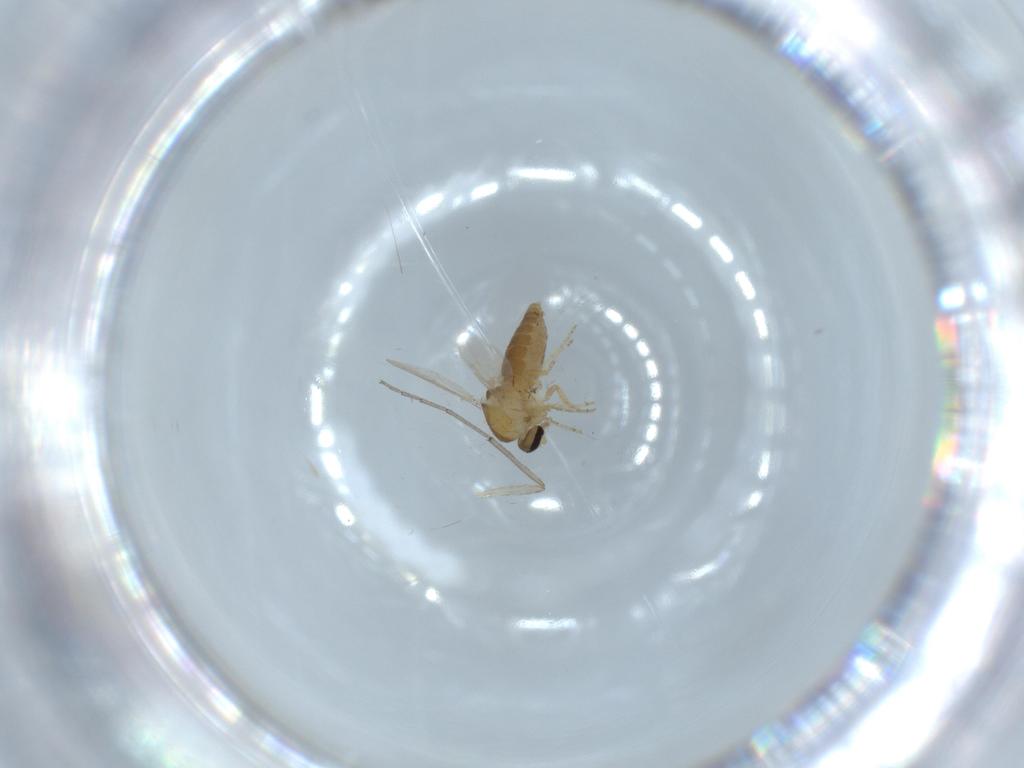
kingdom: Animalia
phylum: Arthropoda
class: Insecta
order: Diptera
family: Ceratopogonidae
